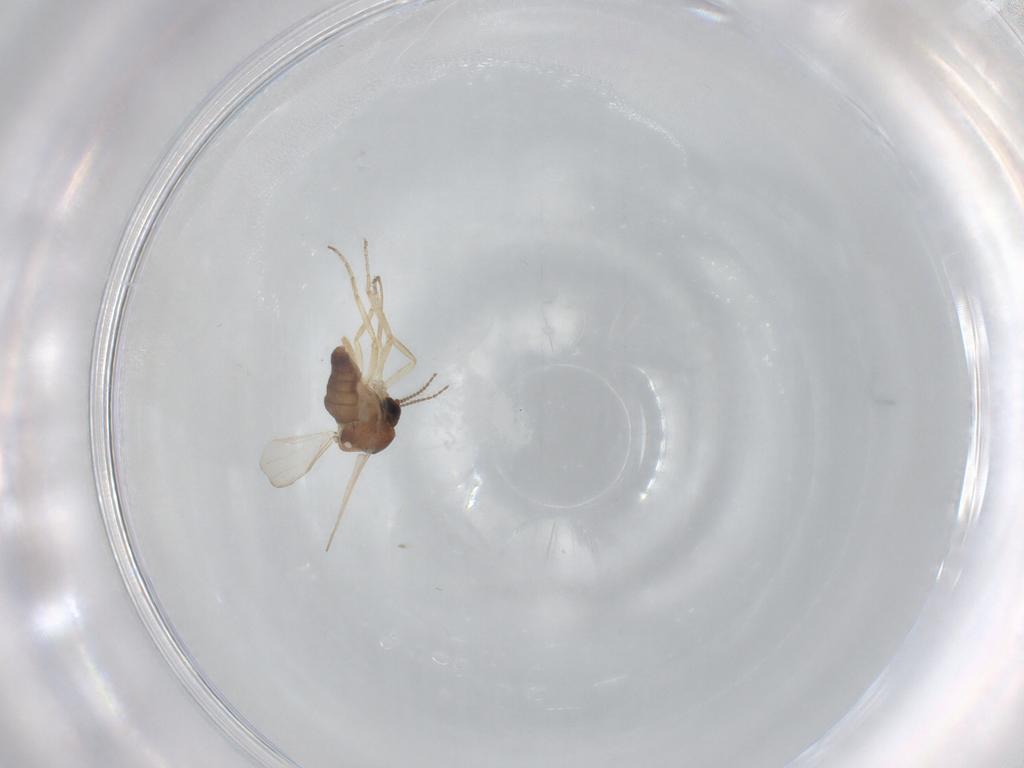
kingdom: Animalia
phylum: Arthropoda
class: Insecta
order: Diptera
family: Ceratopogonidae
